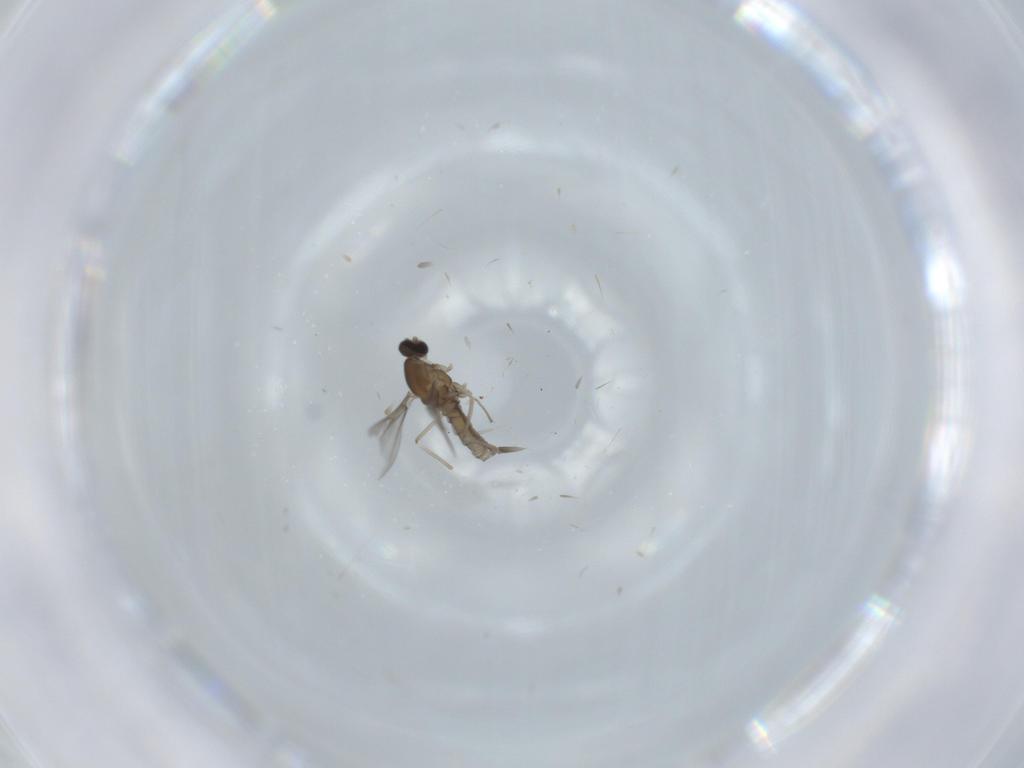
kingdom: Animalia
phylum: Arthropoda
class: Insecta
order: Diptera
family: Cecidomyiidae
